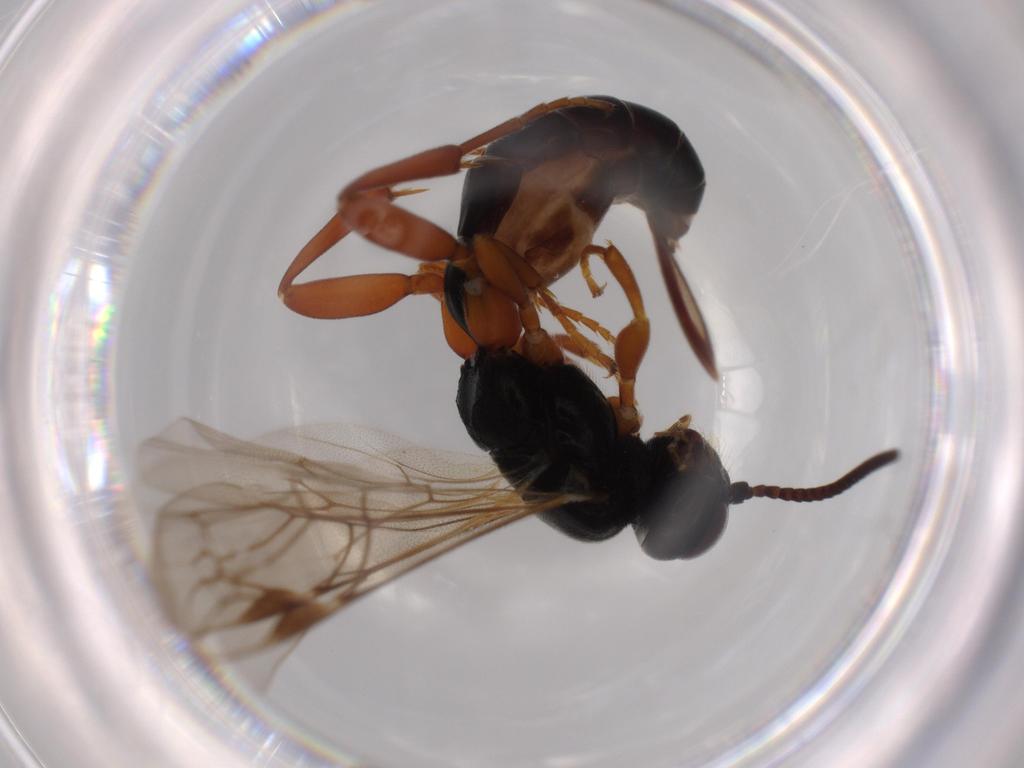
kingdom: Animalia
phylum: Arthropoda
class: Insecta
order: Hymenoptera
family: Ichneumonidae
